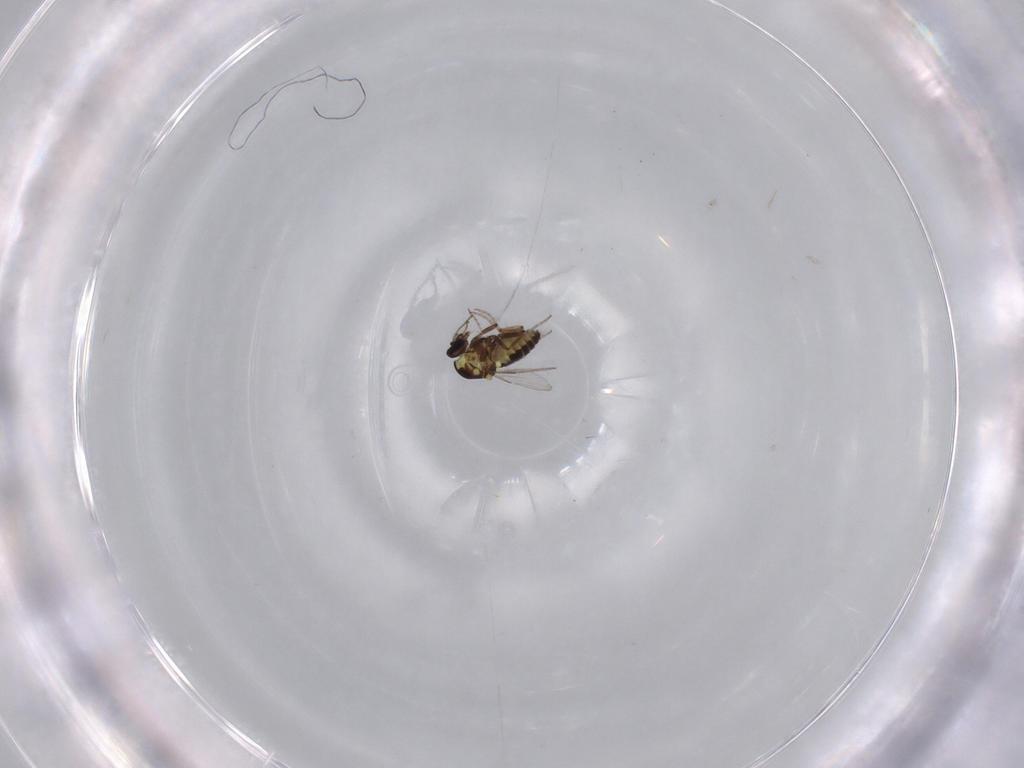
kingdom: Animalia
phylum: Arthropoda
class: Insecta
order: Diptera
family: Ceratopogonidae
